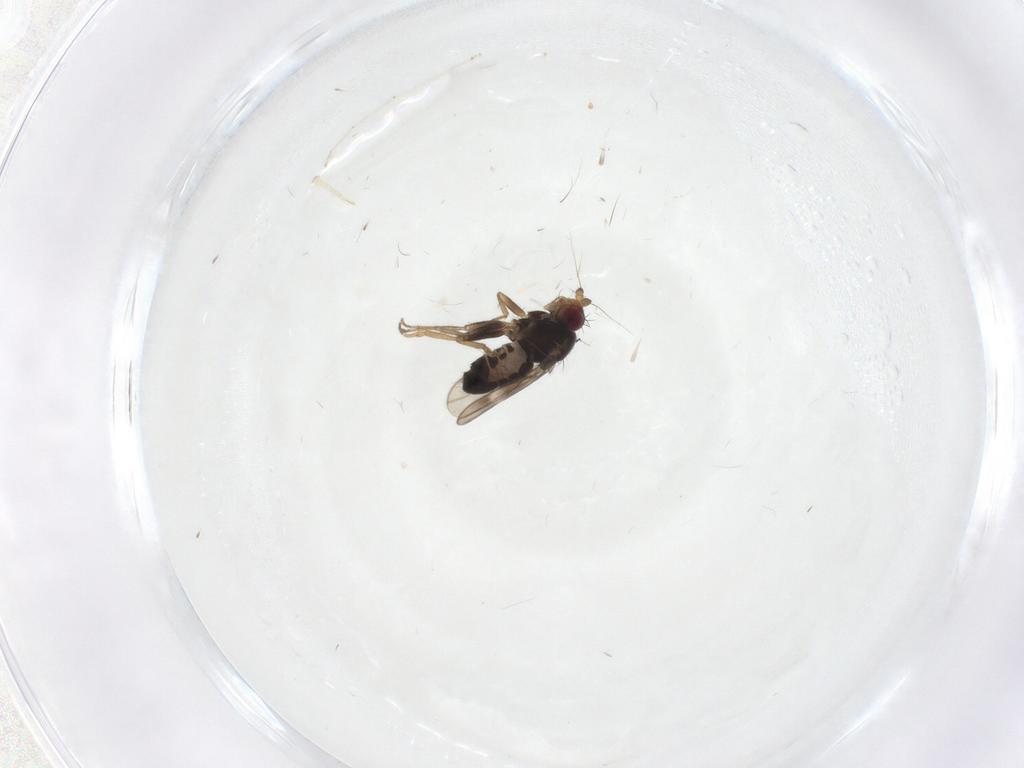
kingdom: Animalia
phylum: Arthropoda
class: Insecta
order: Diptera
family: Sphaeroceridae
